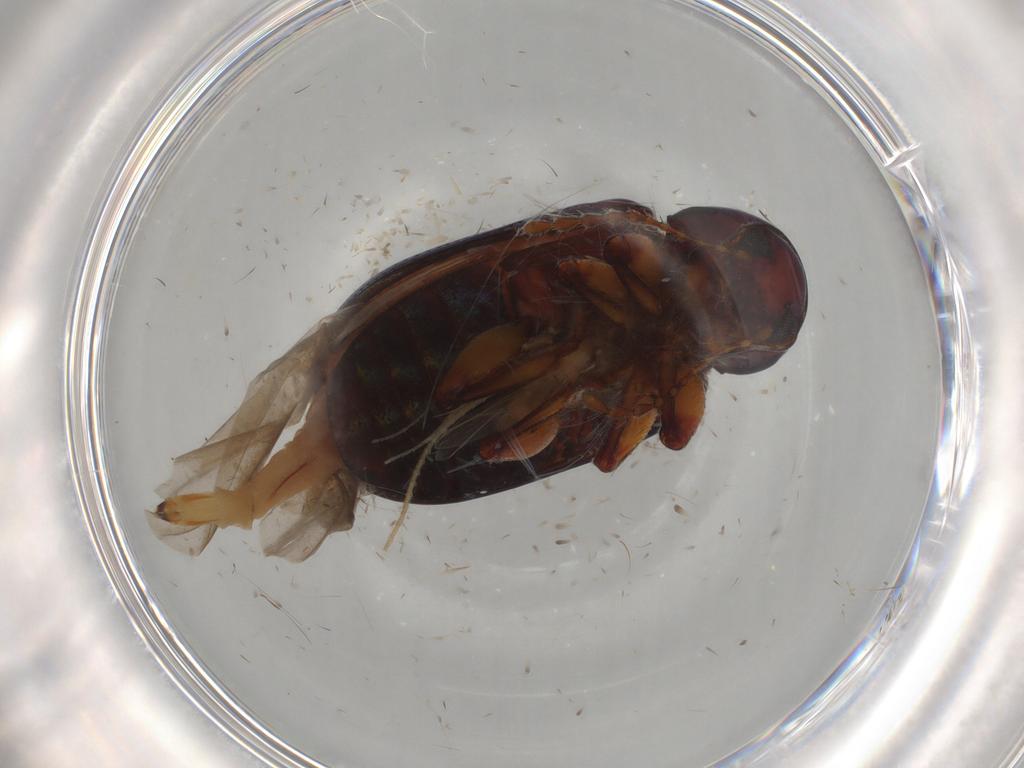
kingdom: Animalia
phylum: Arthropoda
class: Insecta
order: Coleoptera
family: Chrysomelidae
